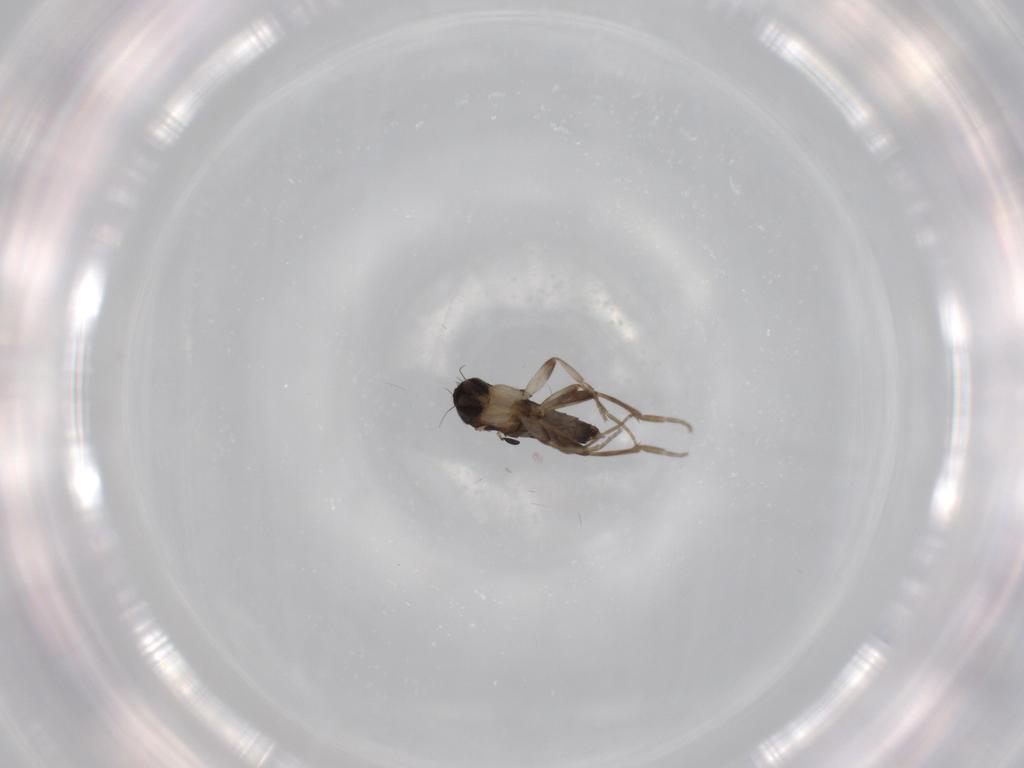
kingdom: Animalia
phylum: Arthropoda
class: Insecta
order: Diptera
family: Phoridae
